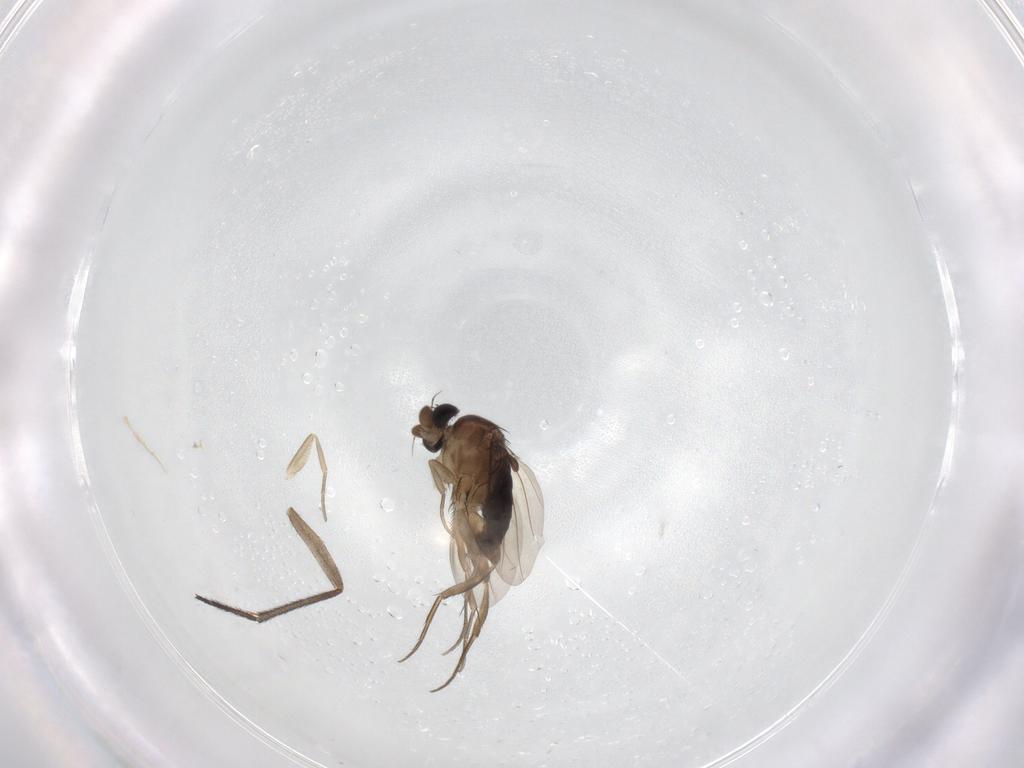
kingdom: Animalia
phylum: Arthropoda
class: Insecta
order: Diptera
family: Phoridae
